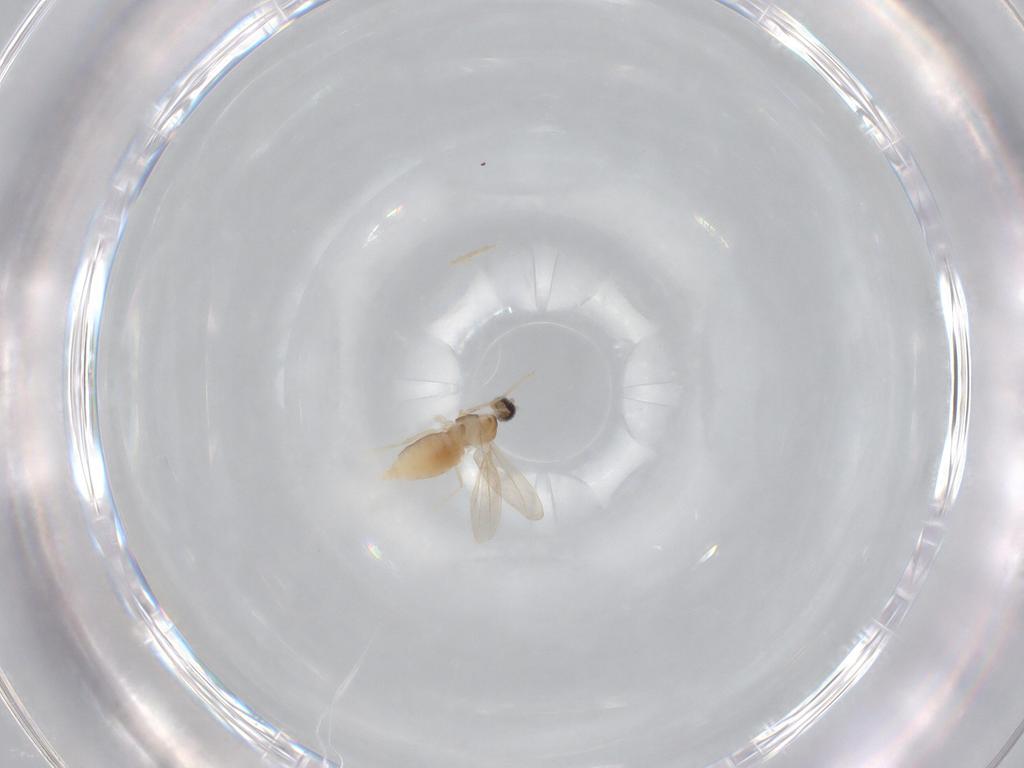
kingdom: Animalia
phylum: Arthropoda
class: Insecta
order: Diptera
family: Cecidomyiidae
